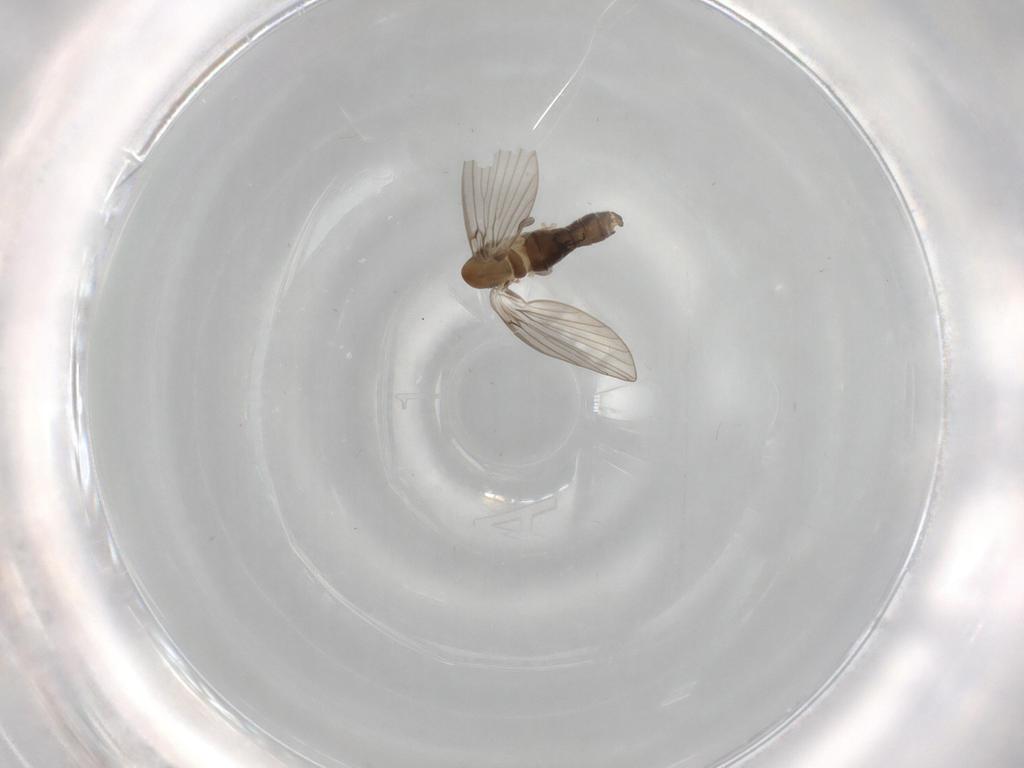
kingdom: Animalia
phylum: Arthropoda
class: Insecta
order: Diptera
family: Psychodidae
